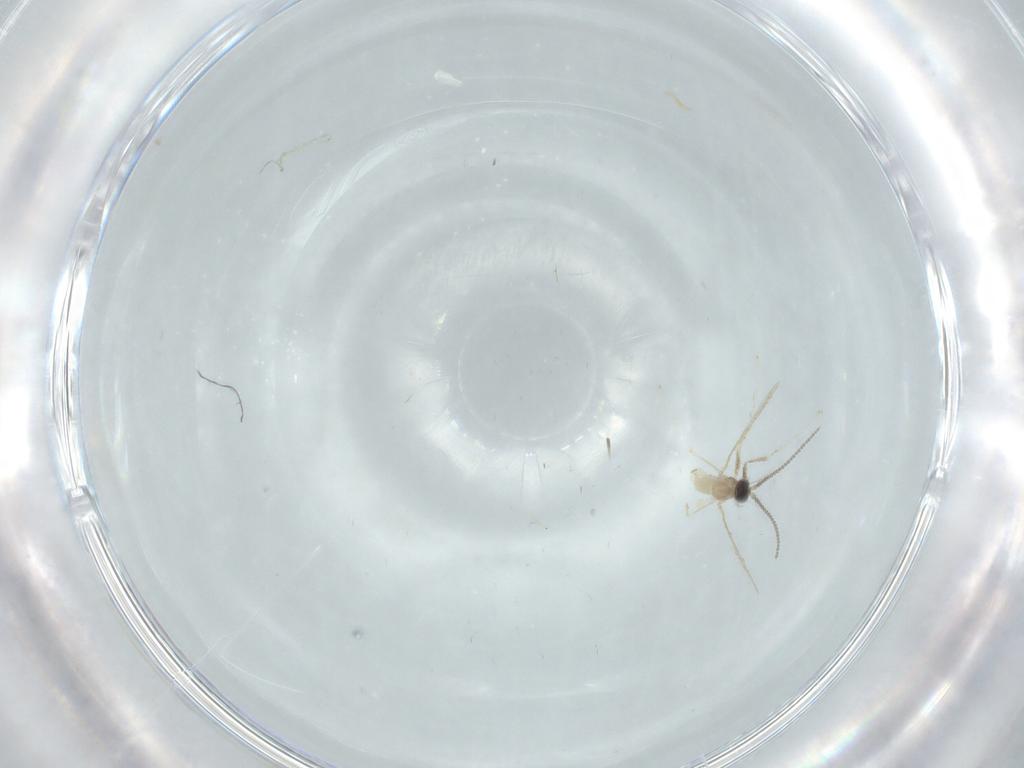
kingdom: Animalia
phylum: Arthropoda
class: Insecta
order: Diptera
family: Cecidomyiidae
